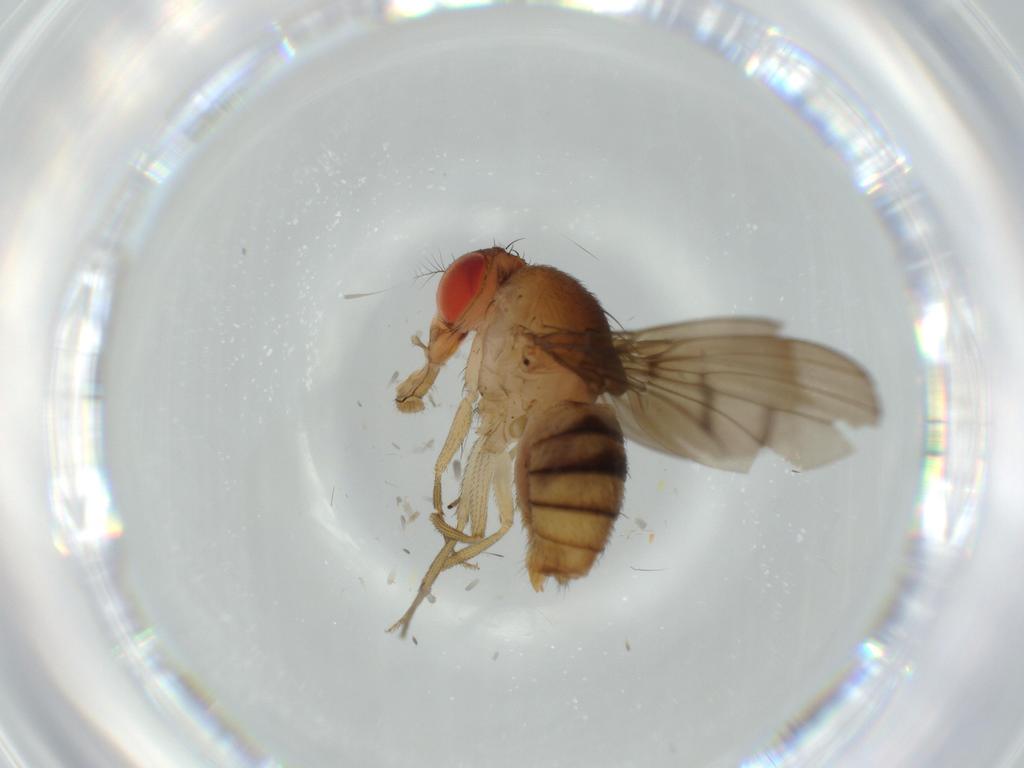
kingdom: Animalia
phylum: Arthropoda
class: Insecta
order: Diptera
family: Drosophilidae
